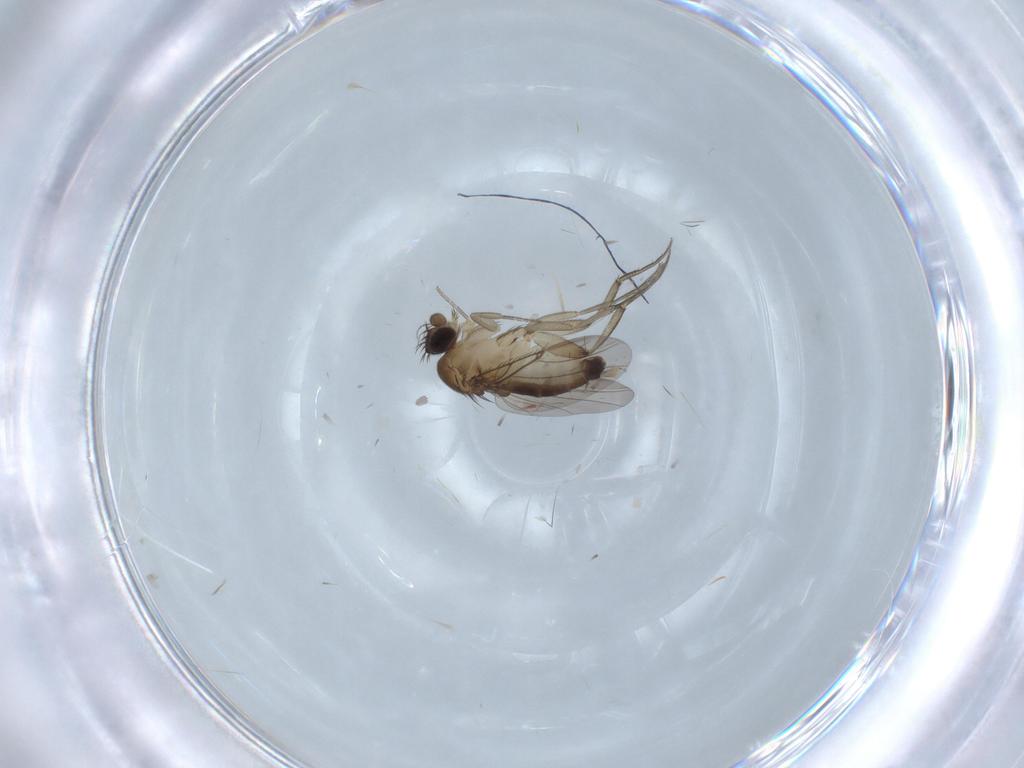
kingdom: Animalia
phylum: Arthropoda
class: Insecta
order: Diptera
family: Phoridae
